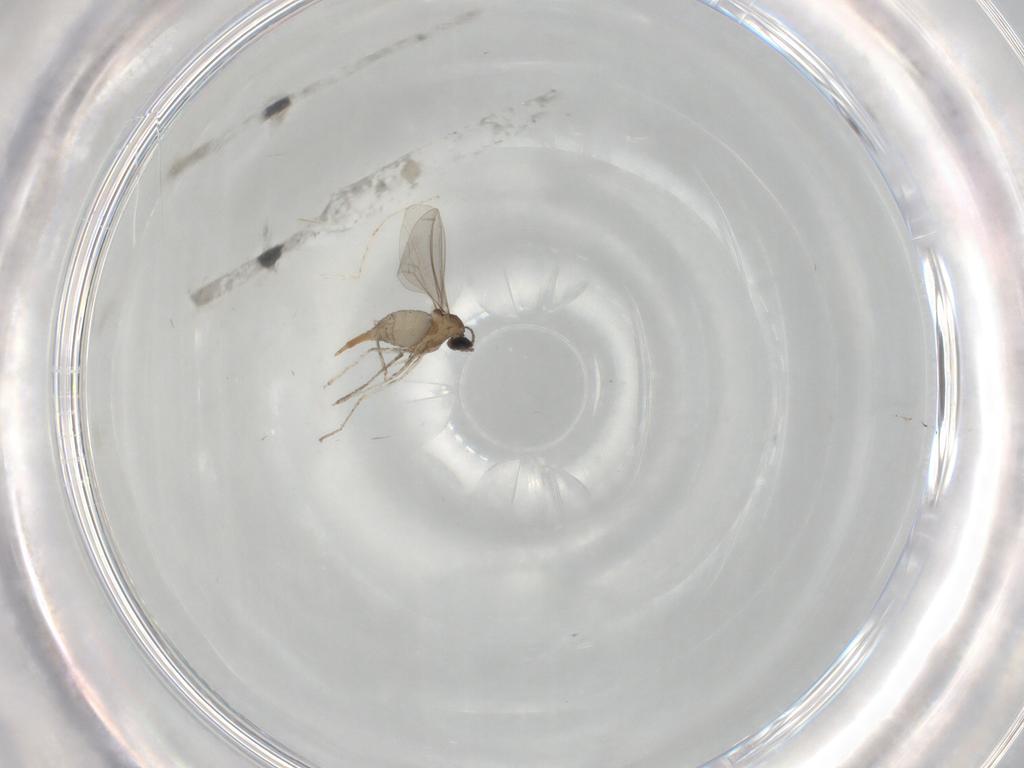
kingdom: Animalia
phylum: Arthropoda
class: Insecta
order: Diptera
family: Cecidomyiidae
